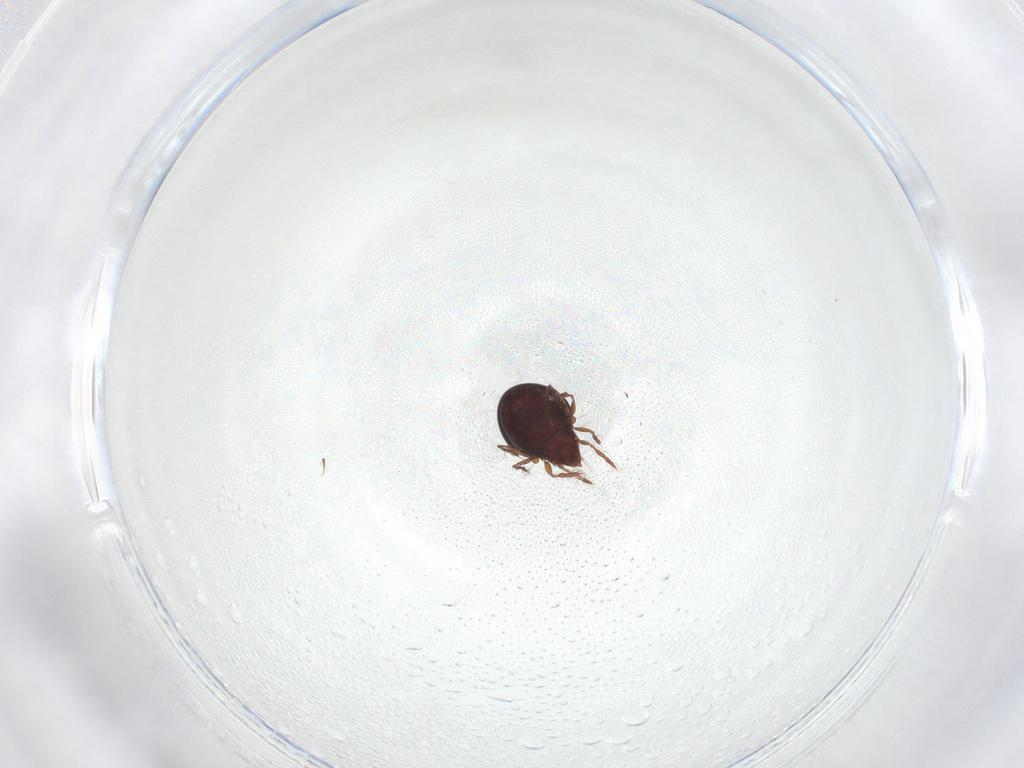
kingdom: Animalia
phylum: Arthropoda
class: Arachnida
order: Sarcoptiformes
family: Ceratoppiidae
